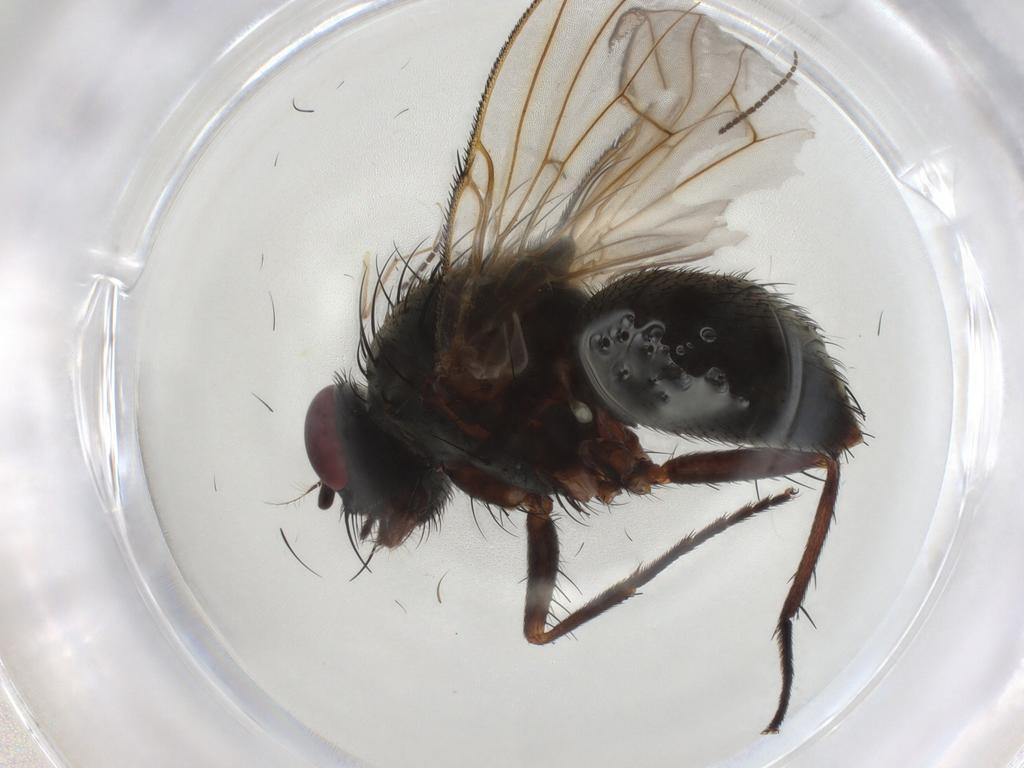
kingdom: Animalia
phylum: Arthropoda
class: Insecta
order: Diptera
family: Muscidae
